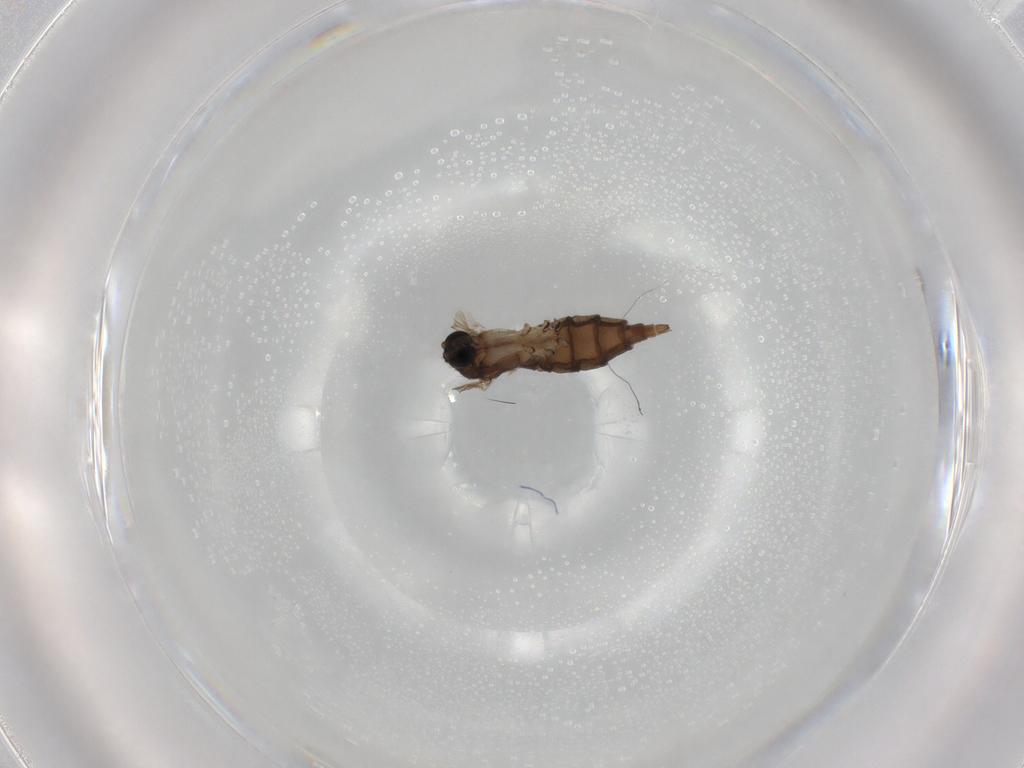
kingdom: Animalia
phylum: Arthropoda
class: Insecta
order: Diptera
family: Sciaridae
